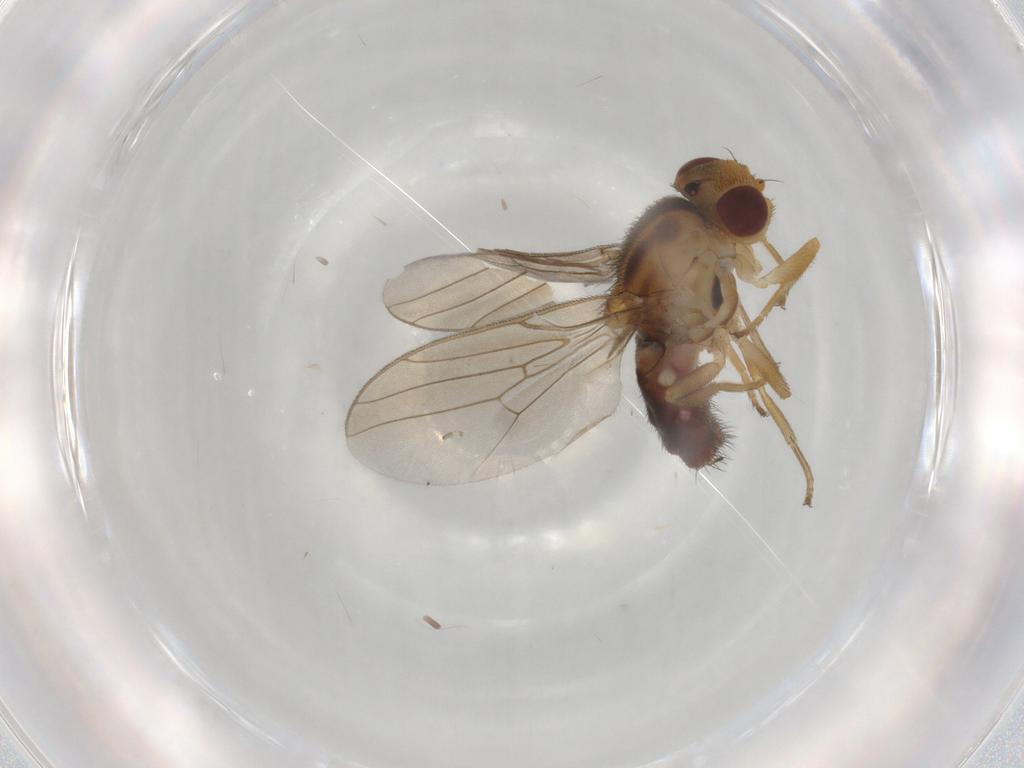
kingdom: Animalia
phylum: Arthropoda
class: Insecta
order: Diptera
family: Chloropidae
